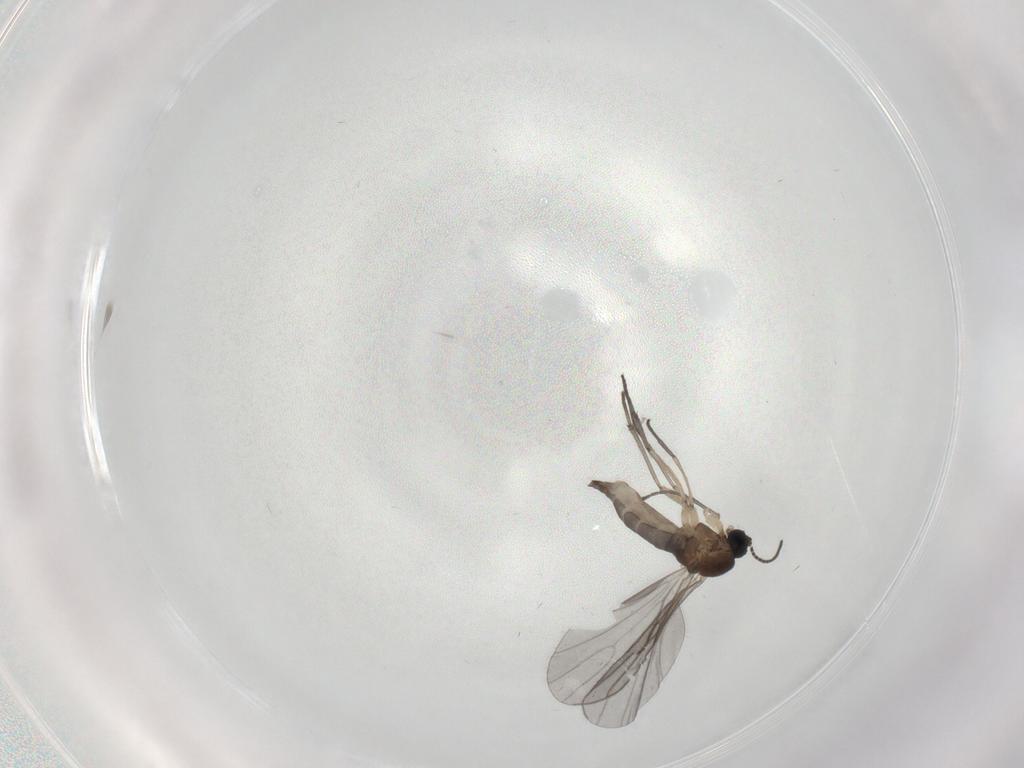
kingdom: Animalia
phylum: Arthropoda
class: Insecta
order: Diptera
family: Sciaridae
